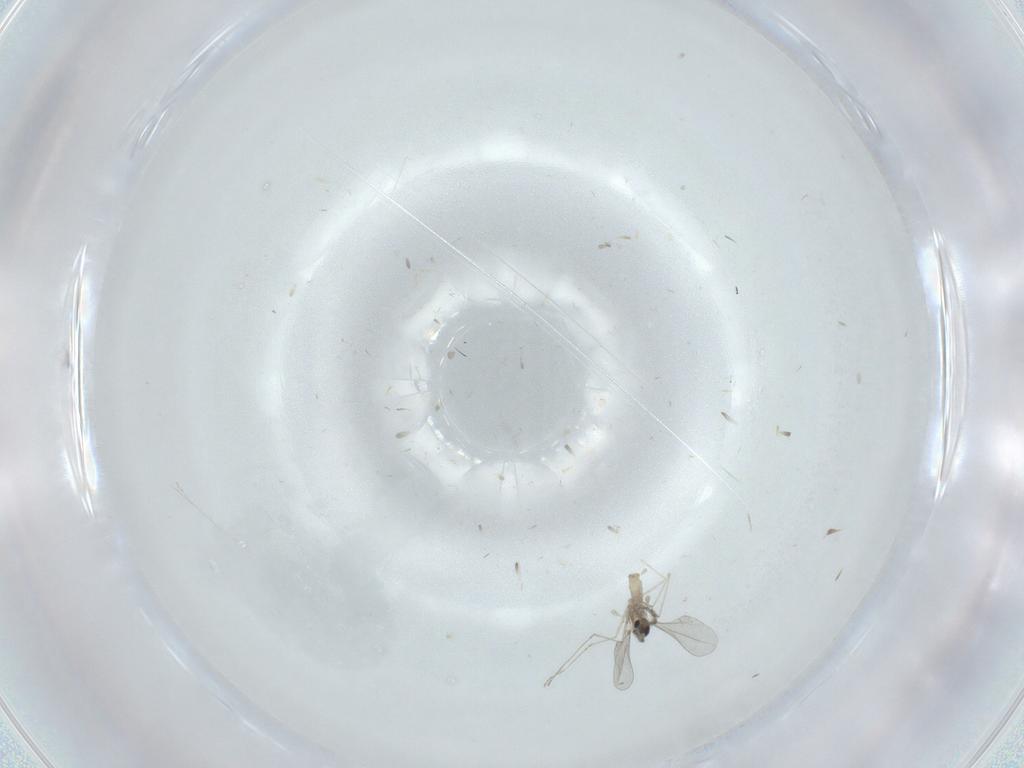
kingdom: Animalia
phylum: Arthropoda
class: Insecta
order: Diptera
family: Cecidomyiidae
